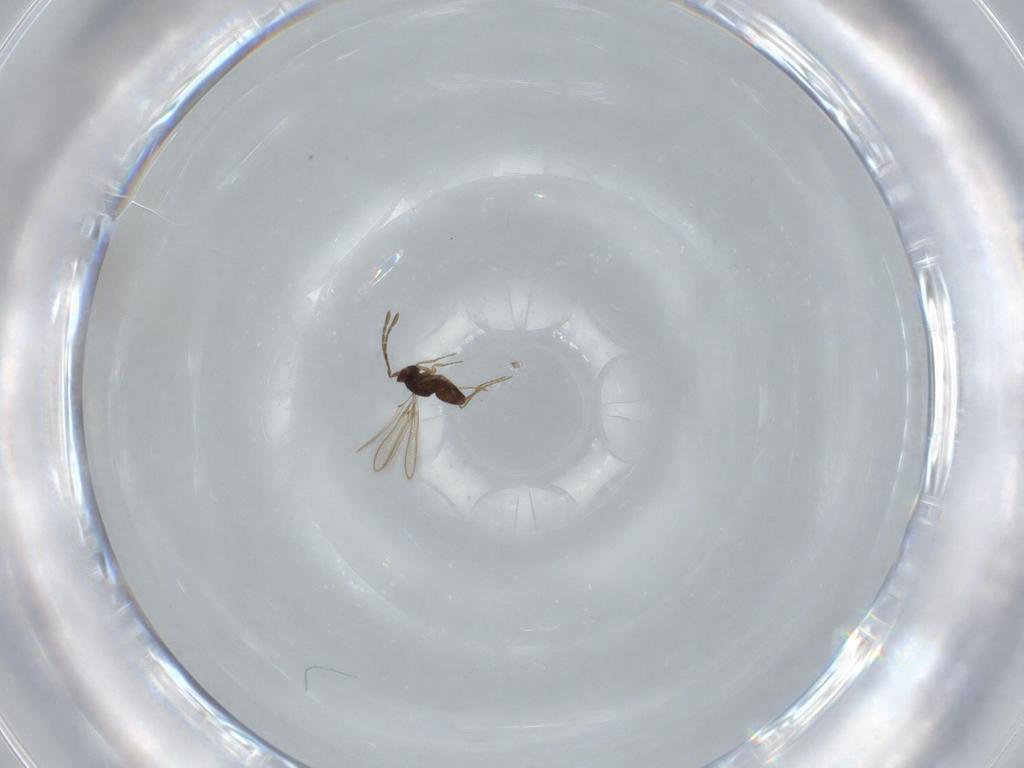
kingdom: Animalia
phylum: Arthropoda
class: Insecta
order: Hymenoptera
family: Mymaridae
